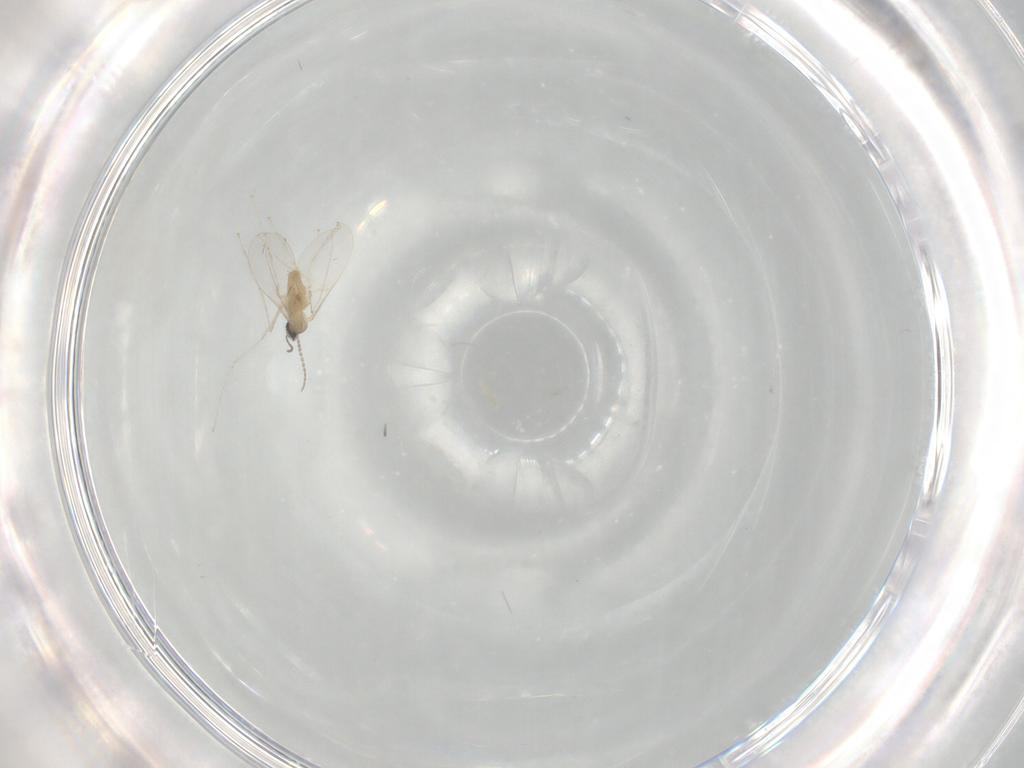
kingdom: Animalia
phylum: Arthropoda
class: Insecta
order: Diptera
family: Cecidomyiidae
